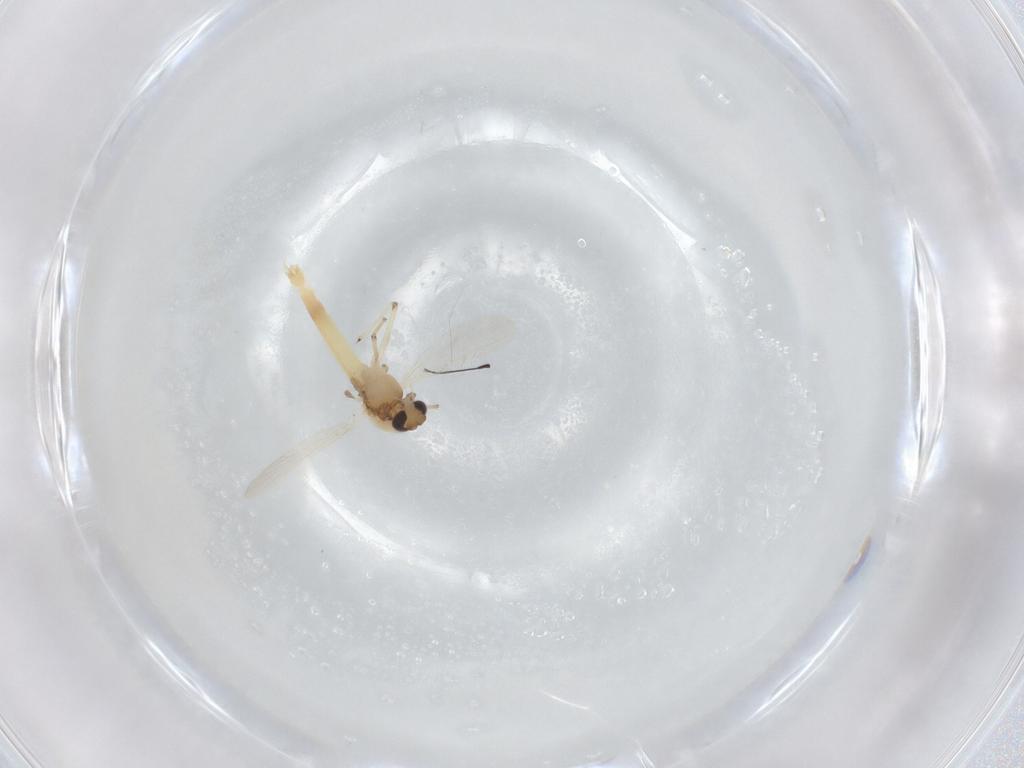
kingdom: Animalia
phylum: Arthropoda
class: Insecta
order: Diptera
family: Chironomidae
